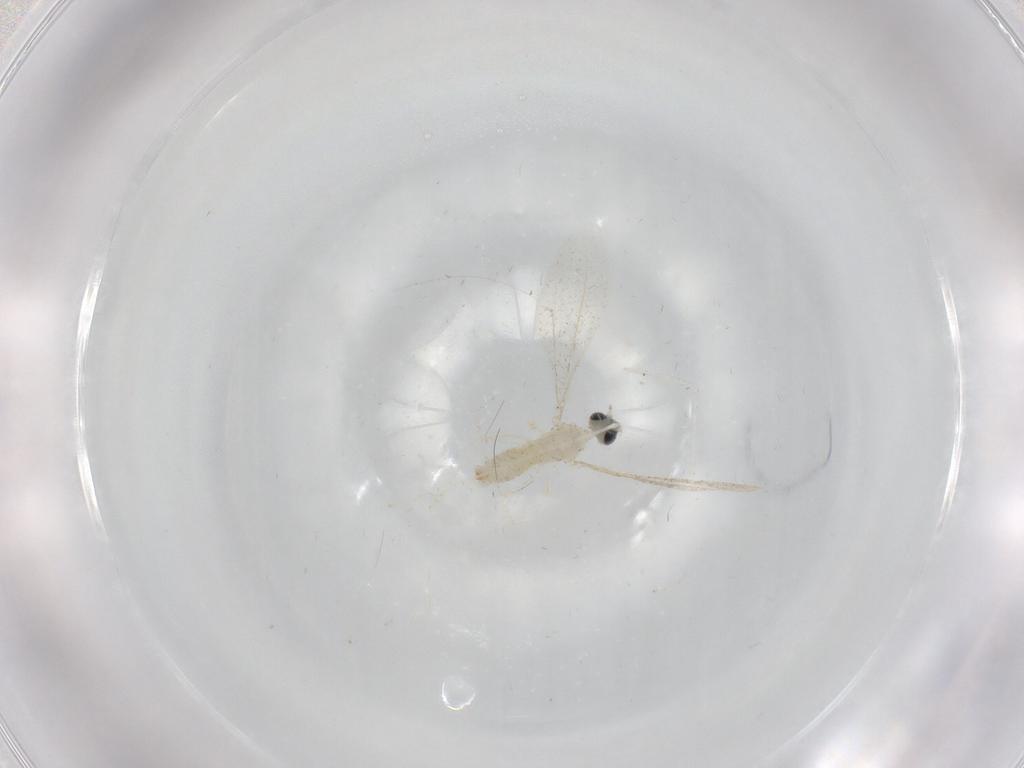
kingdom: Animalia
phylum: Arthropoda
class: Insecta
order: Diptera
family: Cecidomyiidae
